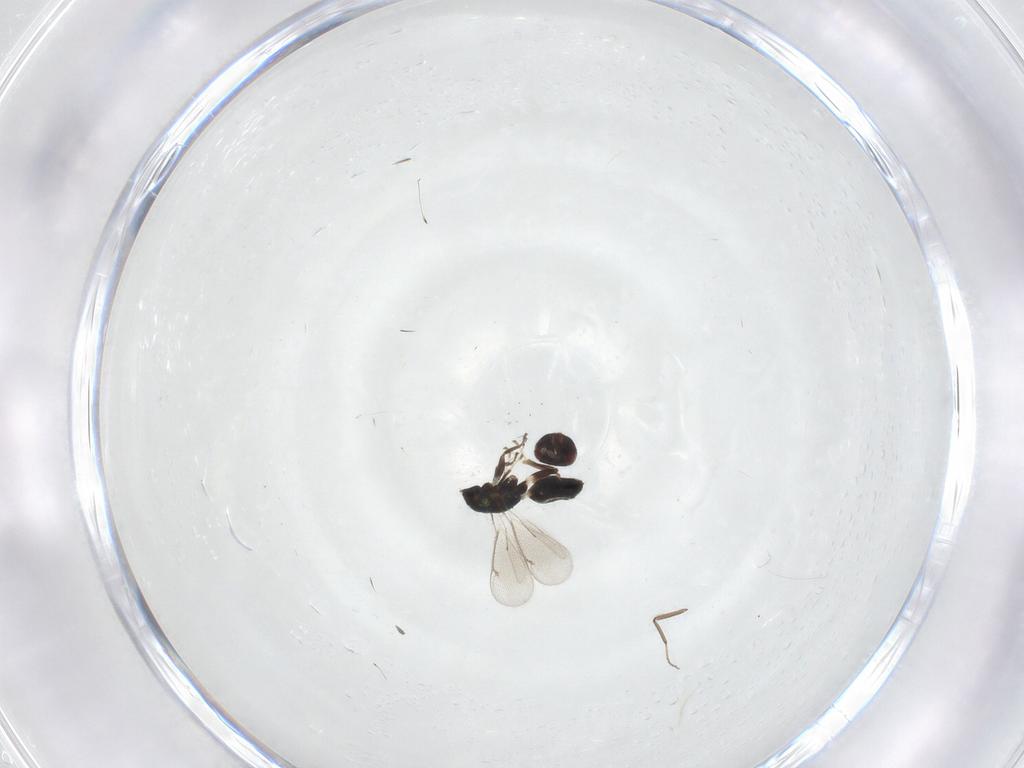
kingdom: Animalia
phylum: Arthropoda
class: Insecta
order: Hymenoptera
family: Eulophidae
